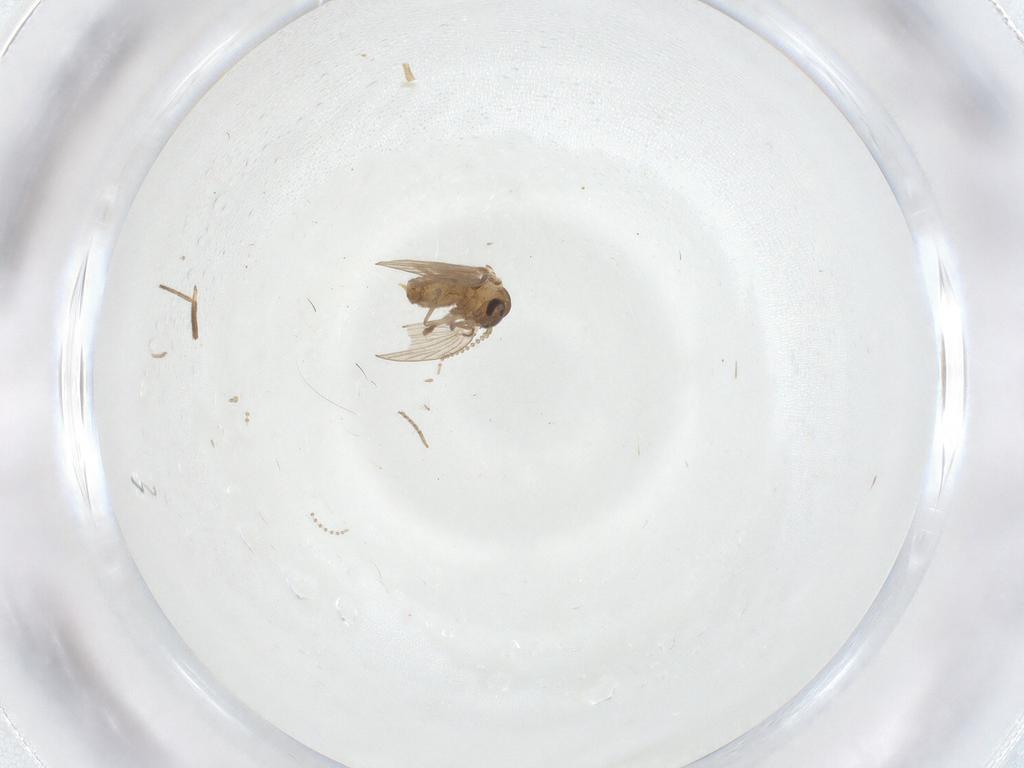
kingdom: Animalia
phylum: Arthropoda
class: Insecta
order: Diptera
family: Psychodidae
